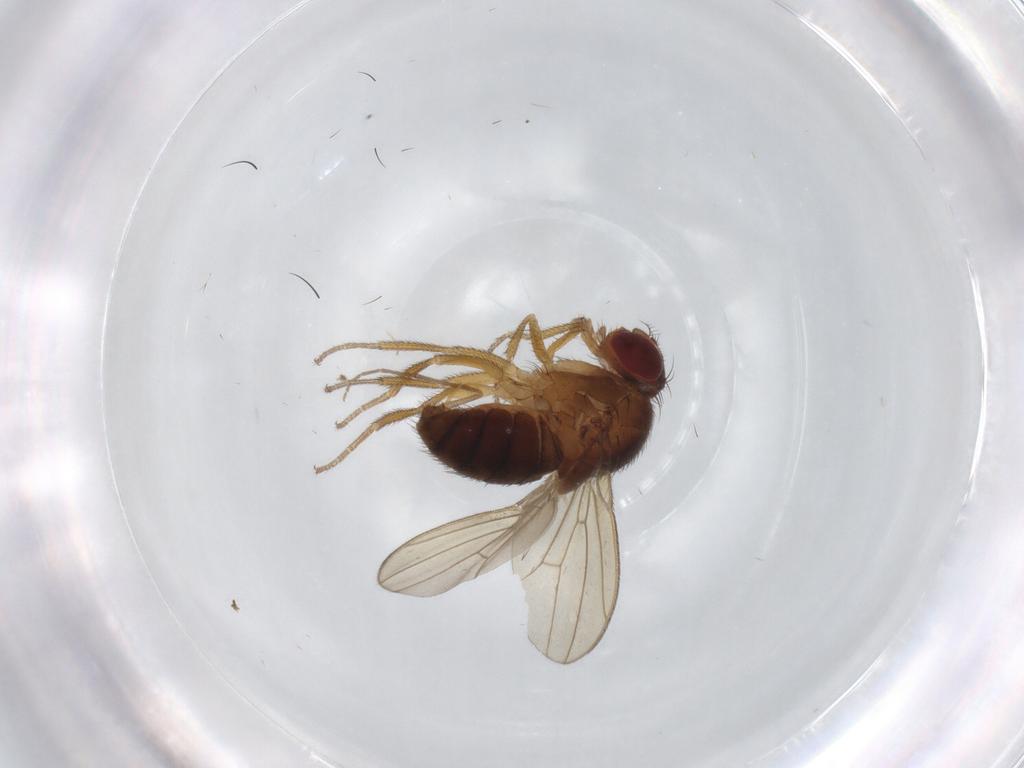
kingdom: Animalia
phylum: Arthropoda
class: Insecta
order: Diptera
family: Drosophilidae
